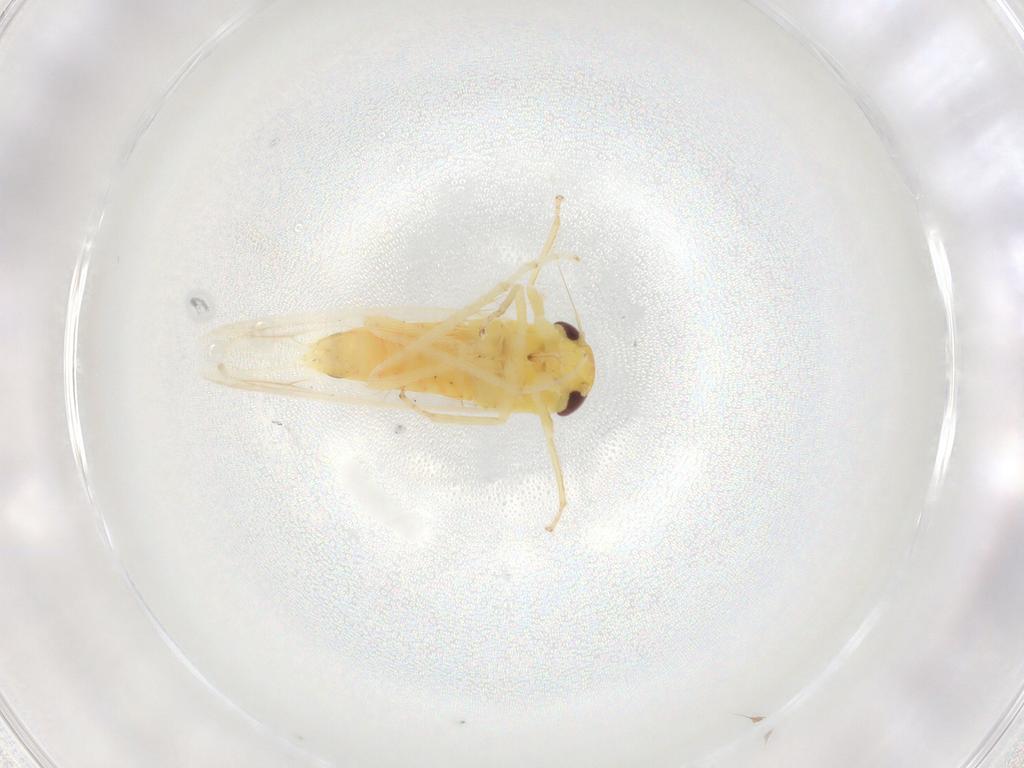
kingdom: Animalia
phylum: Arthropoda
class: Insecta
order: Hemiptera
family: Cicadellidae
